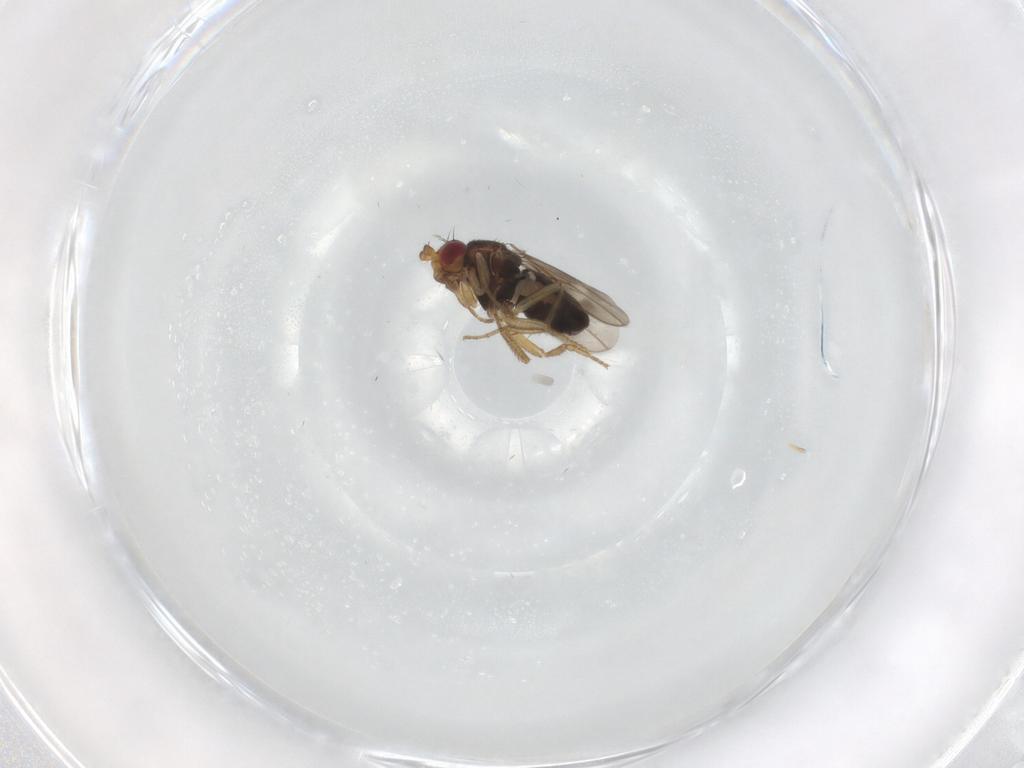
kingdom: Animalia
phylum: Arthropoda
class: Insecta
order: Diptera
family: Sphaeroceridae
